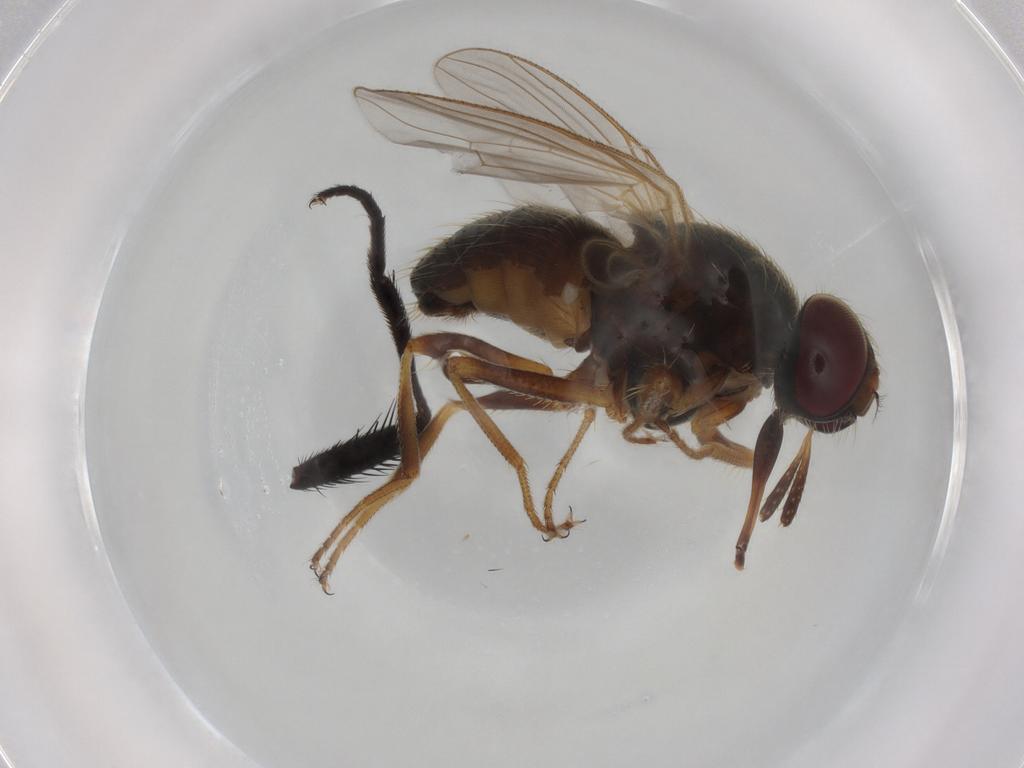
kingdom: Animalia
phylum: Arthropoda
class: Insecta
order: Diptera
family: Muscidae
